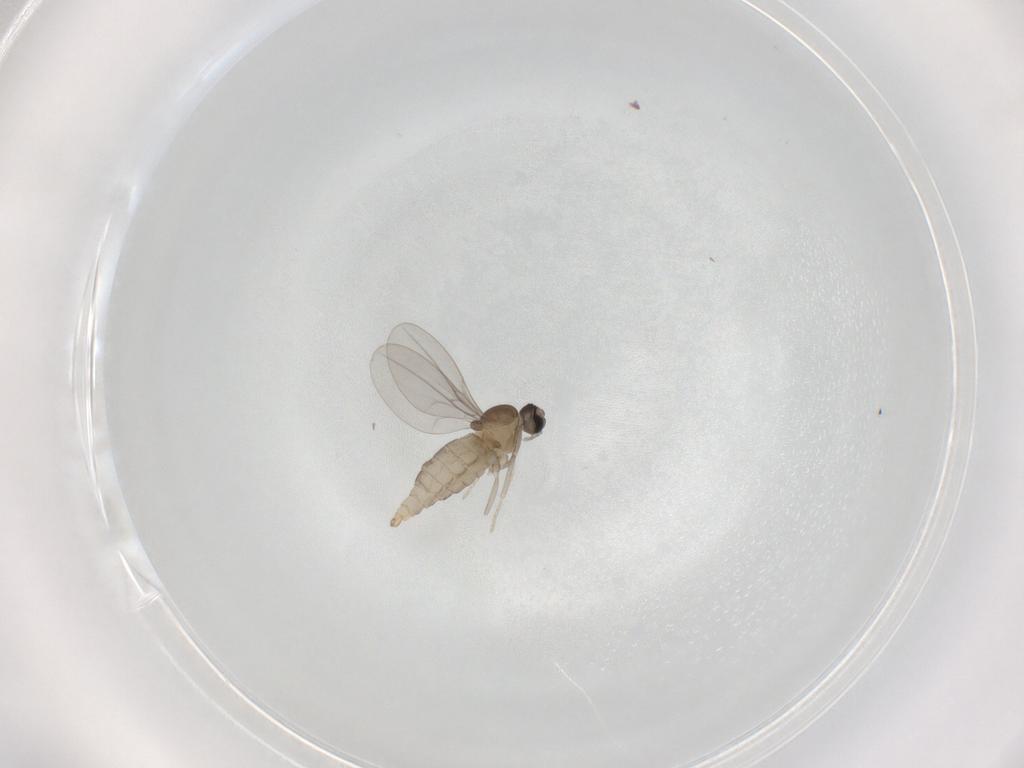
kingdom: Animalia
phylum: Arthropoda
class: Insecta
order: Diptera
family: Cecidomyiidae
